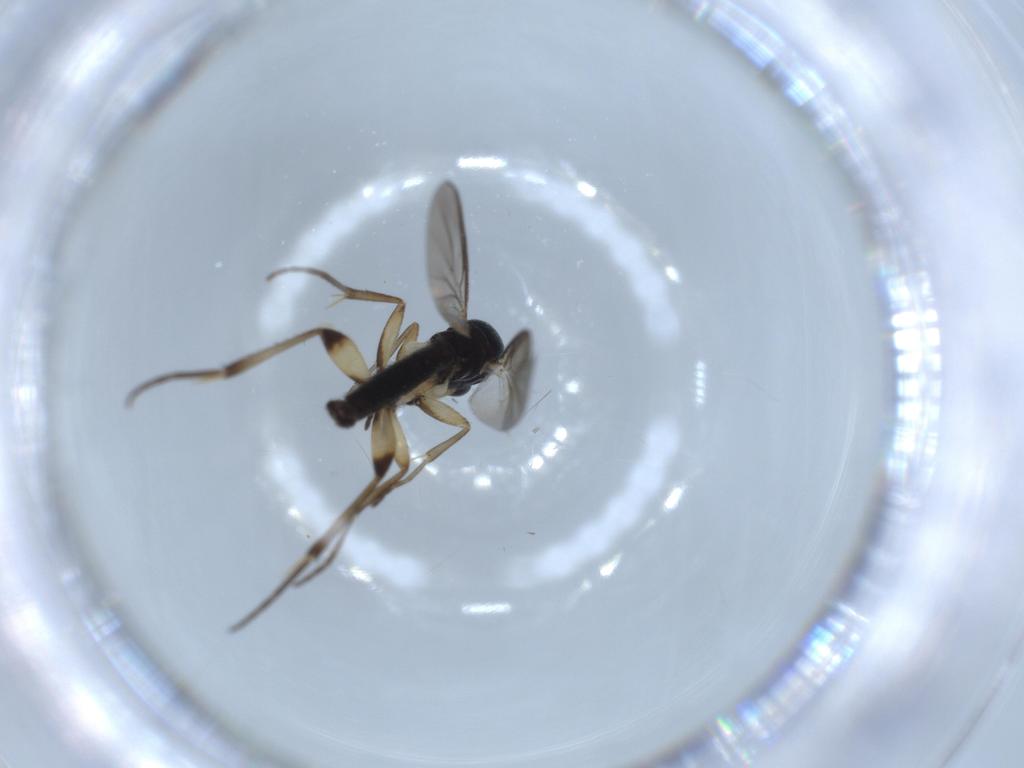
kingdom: Animalia
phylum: Arthropoda
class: Insecta
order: Diptera
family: Mycetophilidae
